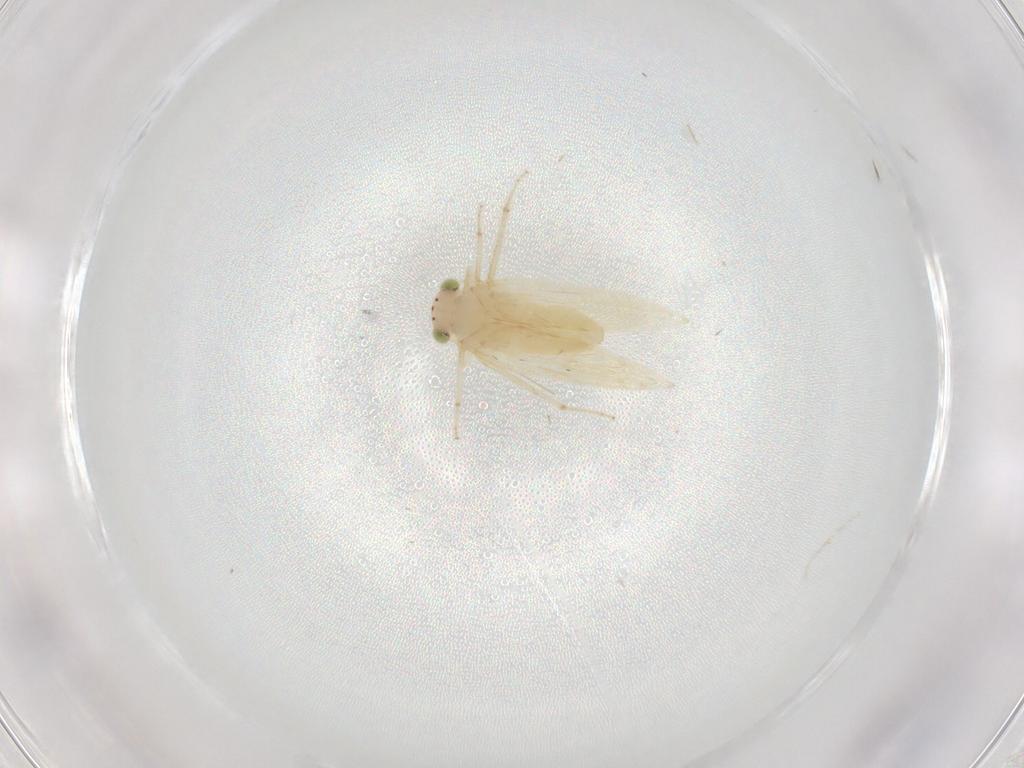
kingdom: Animalia
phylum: Arthropoda
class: Insecta
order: Psocodea
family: Lepidopsocidae
